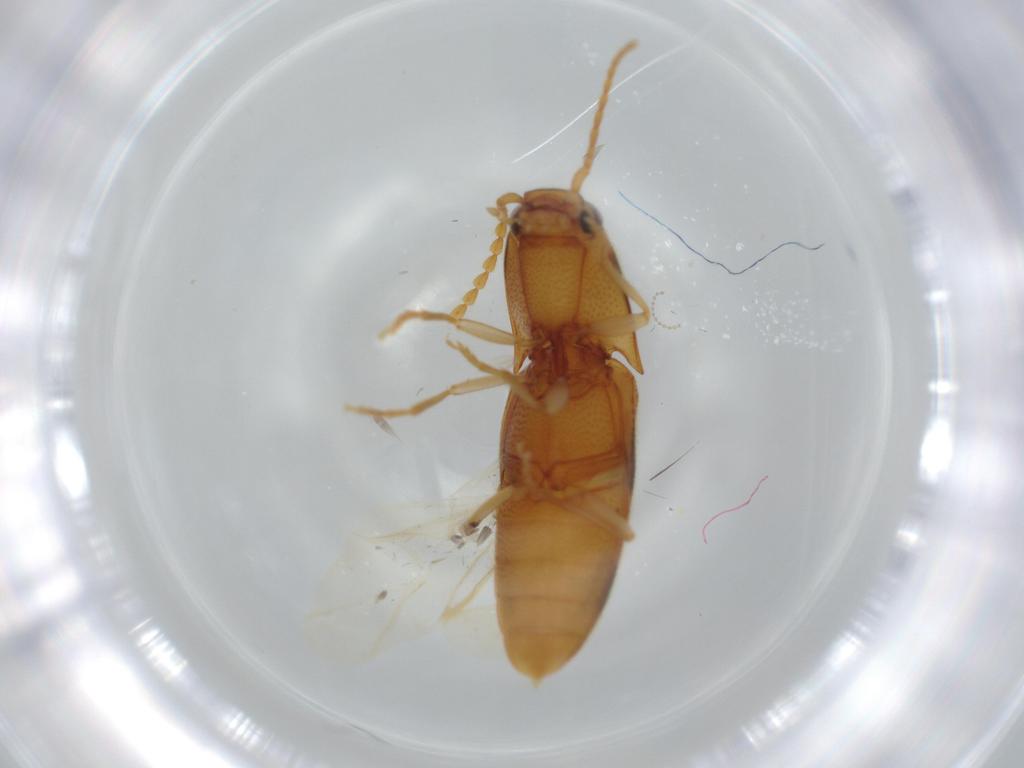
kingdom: Animalia
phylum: Arthropoda
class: Insecta
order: Coleoptera
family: Elateridae
